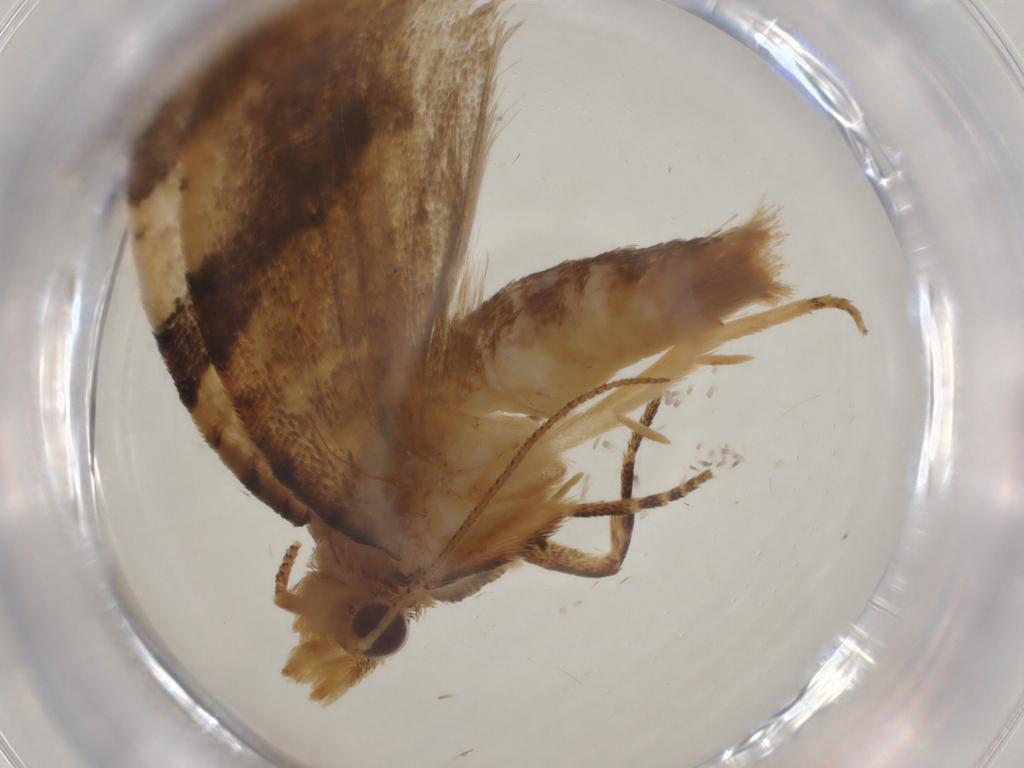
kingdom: Animalia
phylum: Arthropoda
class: Insecta
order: Lepidoptera
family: Tortricidae
